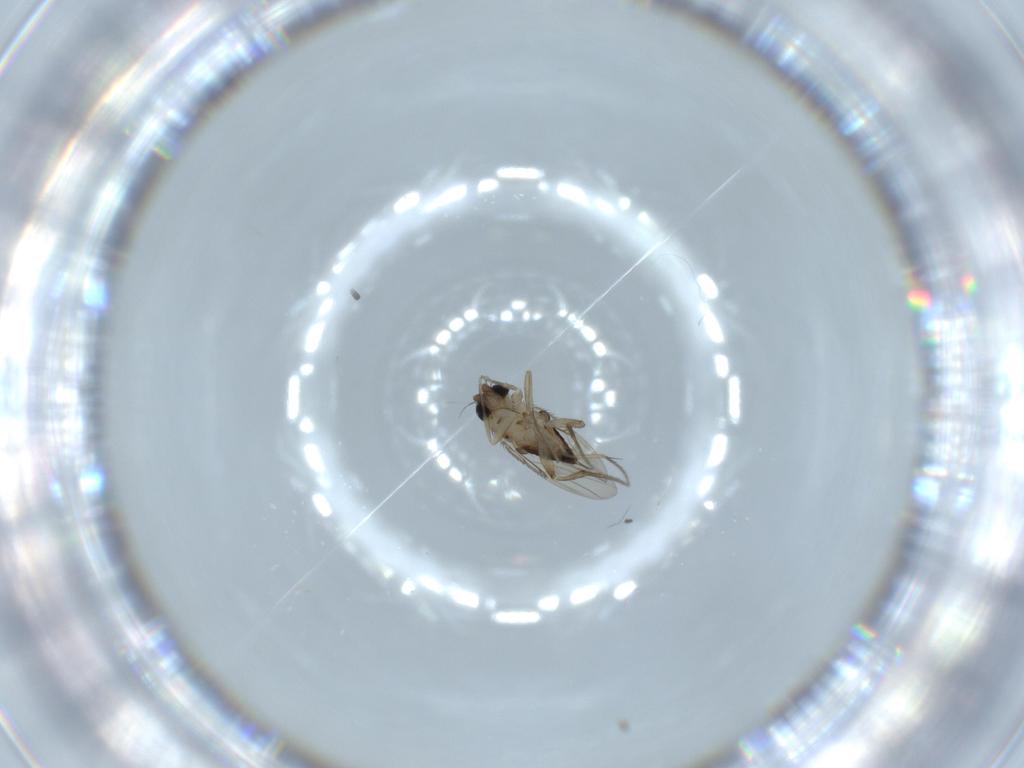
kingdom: Animalia
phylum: Arthropoda
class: Insecta
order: Diptera
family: Phoridae
